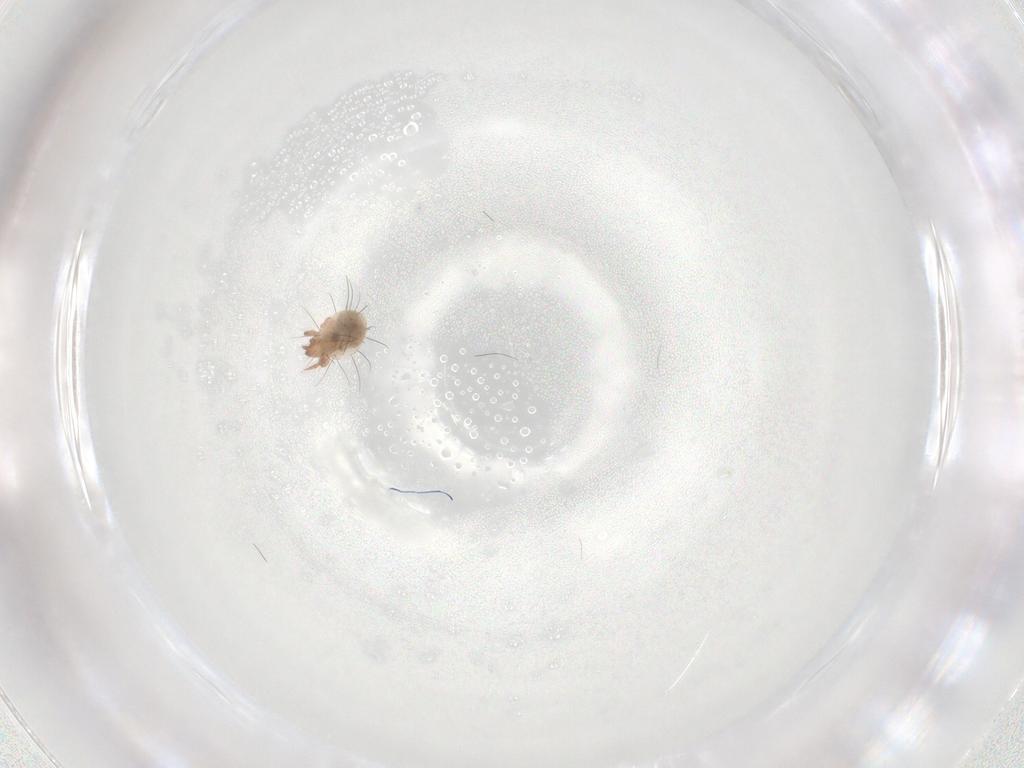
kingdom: Animalia
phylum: Arthropoda
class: Arachnida
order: Sarcoptiformes
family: Ceratozetidae
